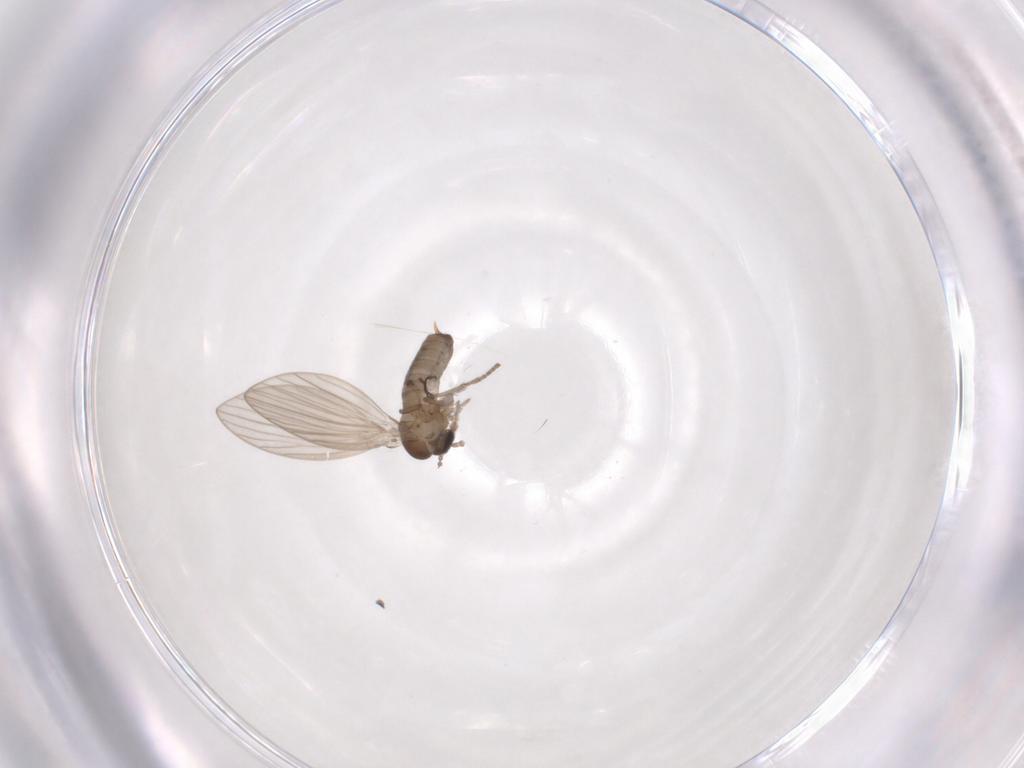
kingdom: Animalia
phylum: Arthropoda
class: Insecta
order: Diptera
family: Psychodidae
